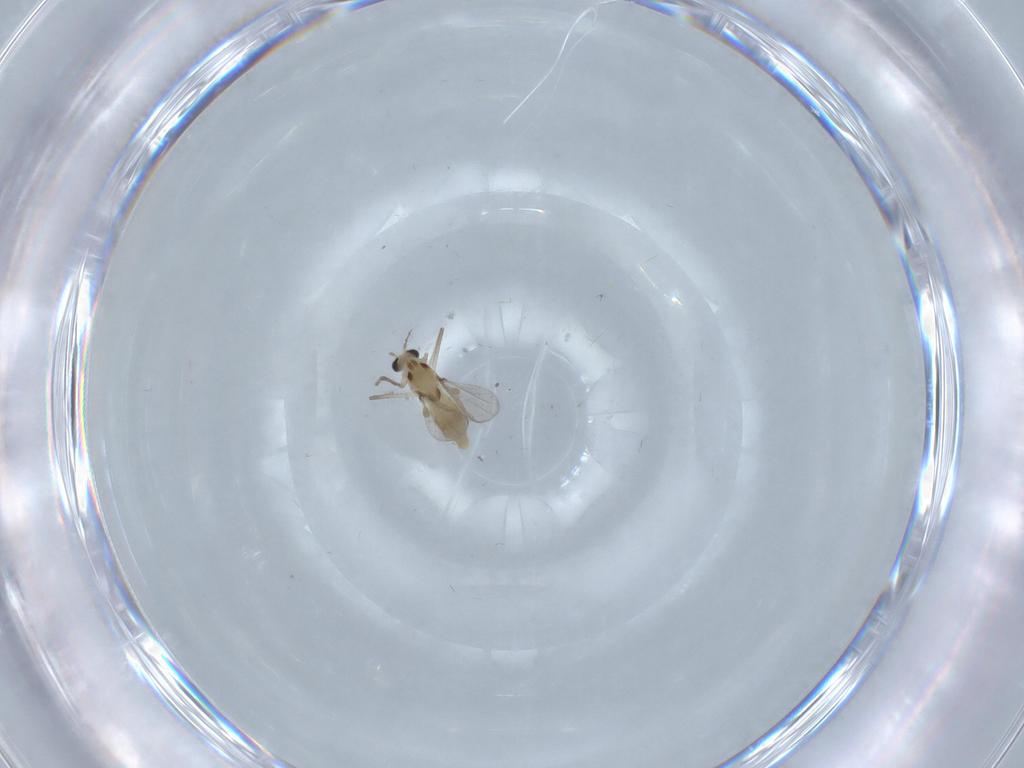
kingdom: Animalia
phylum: Arthropoda
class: Insecta
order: Diptera
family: Chironomidae
